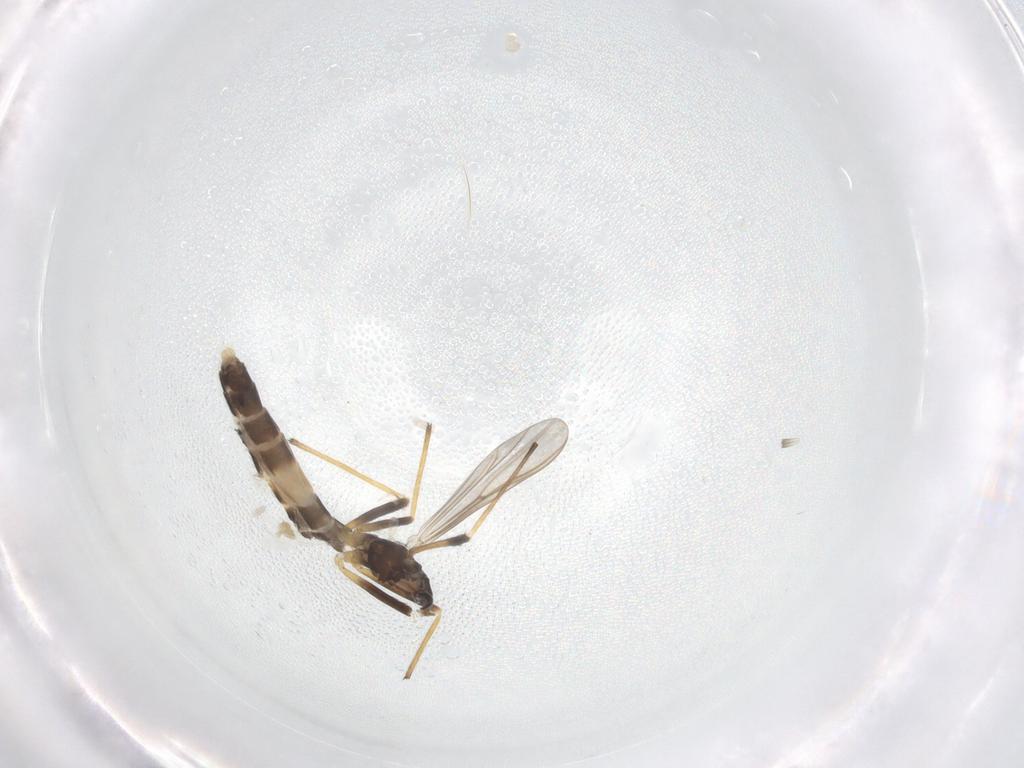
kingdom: Animalia
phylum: Arthropoda
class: Insecta
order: Diptera
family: Chironomidae
